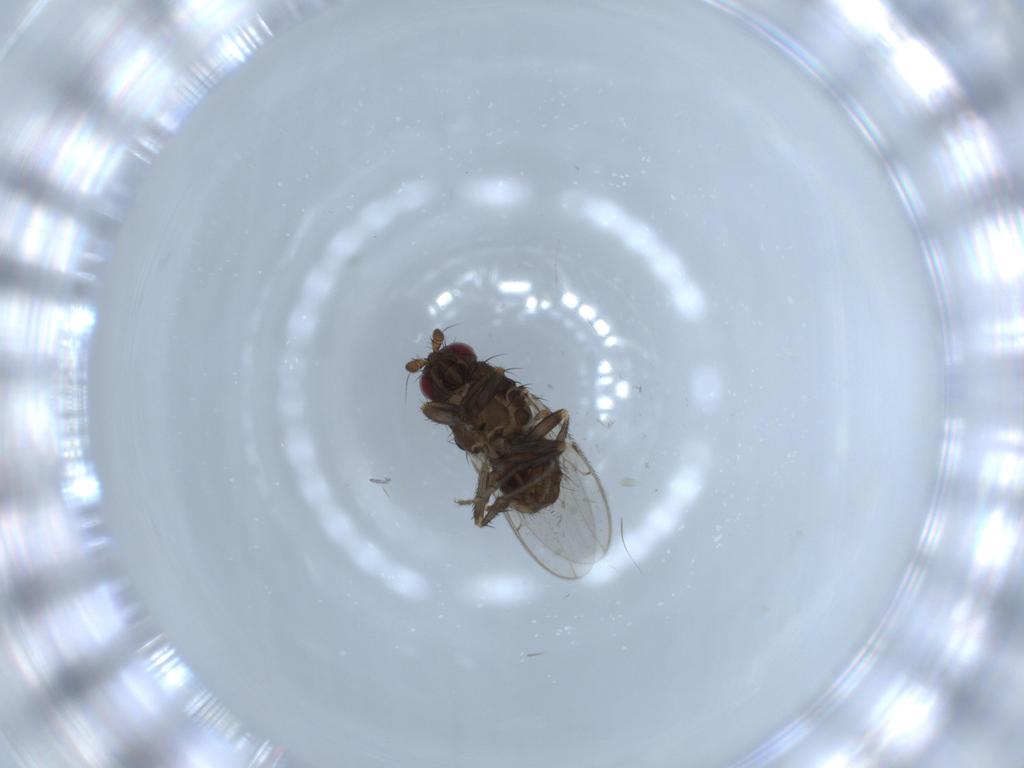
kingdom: Animalia
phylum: Arthropoda
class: Insecta
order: Diptera
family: Cecidomyiidae
